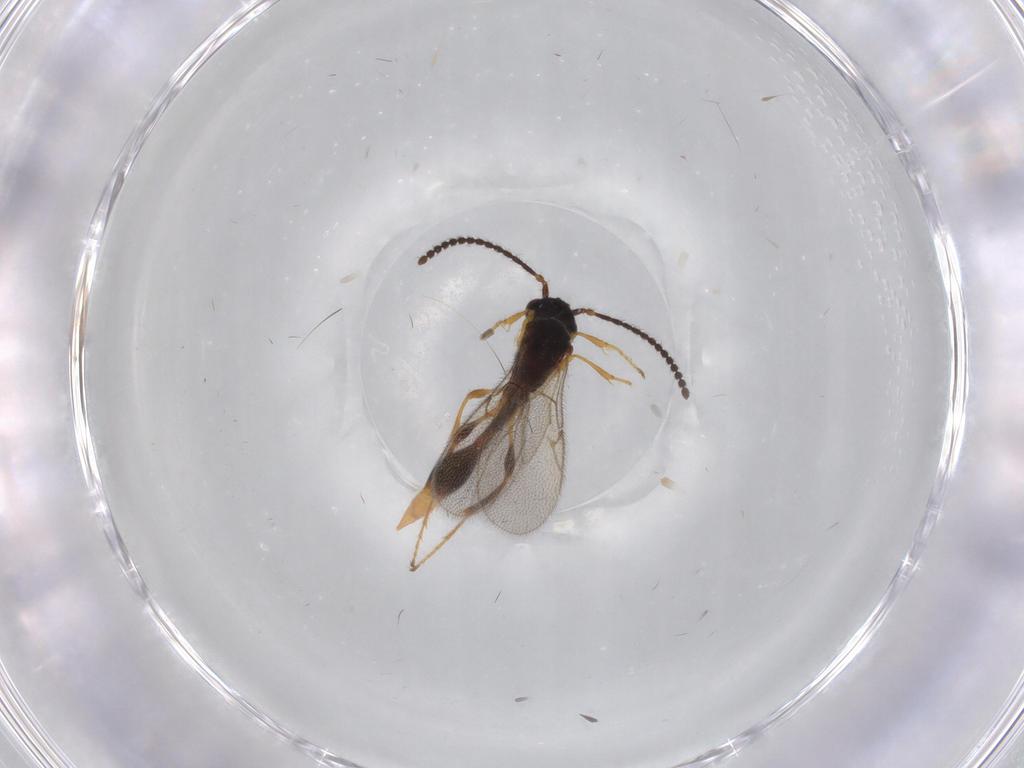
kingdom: Animalia
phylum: Arthropoda
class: Insecta
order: Hymenoptera
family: Diapriidae
